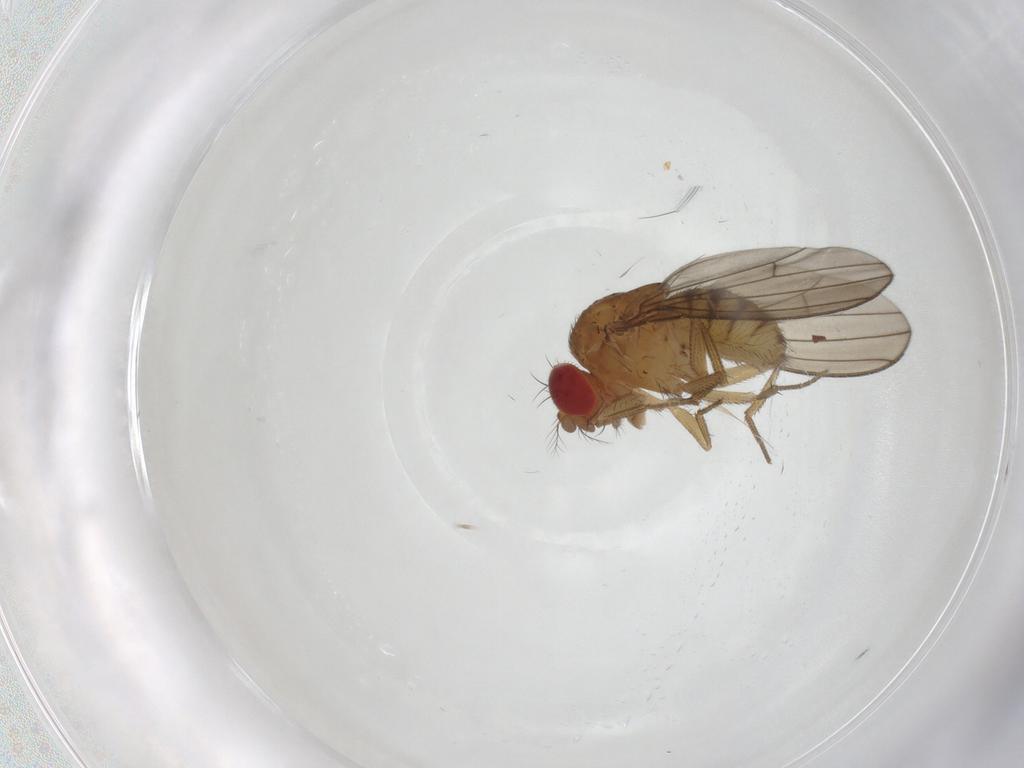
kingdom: Animalia
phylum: Arthropoda
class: Insecta
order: Diptera
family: Drosophilidae
